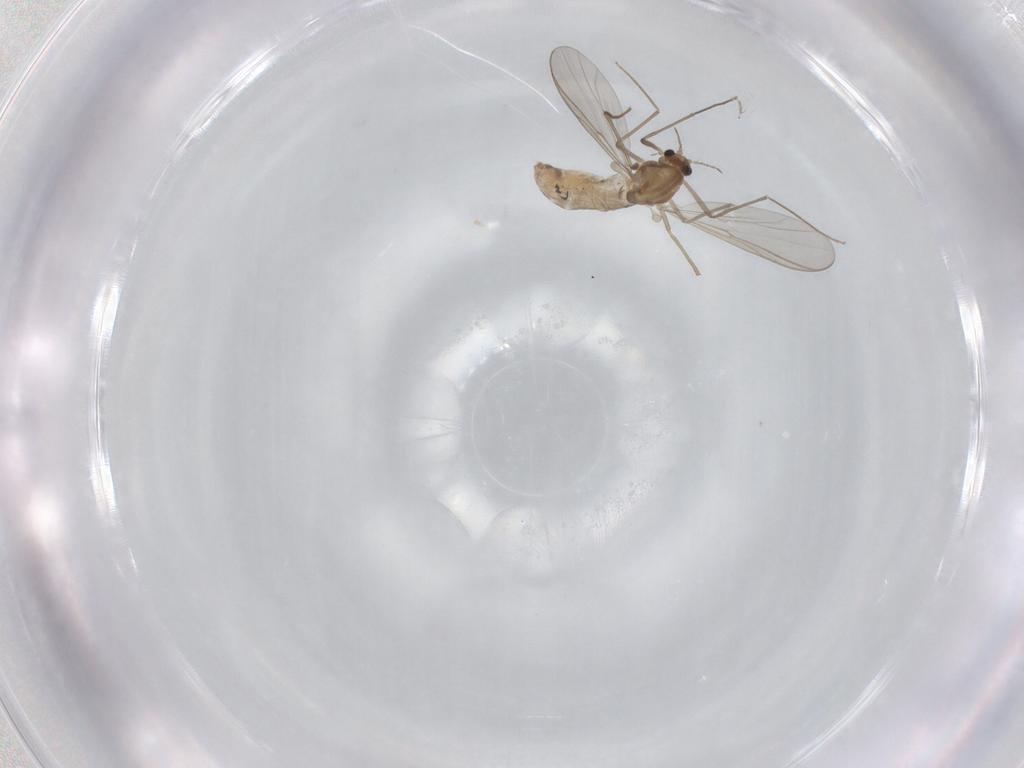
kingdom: Animalia
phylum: Arthropoda
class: Insecta
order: Diptera
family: Chironomidae
